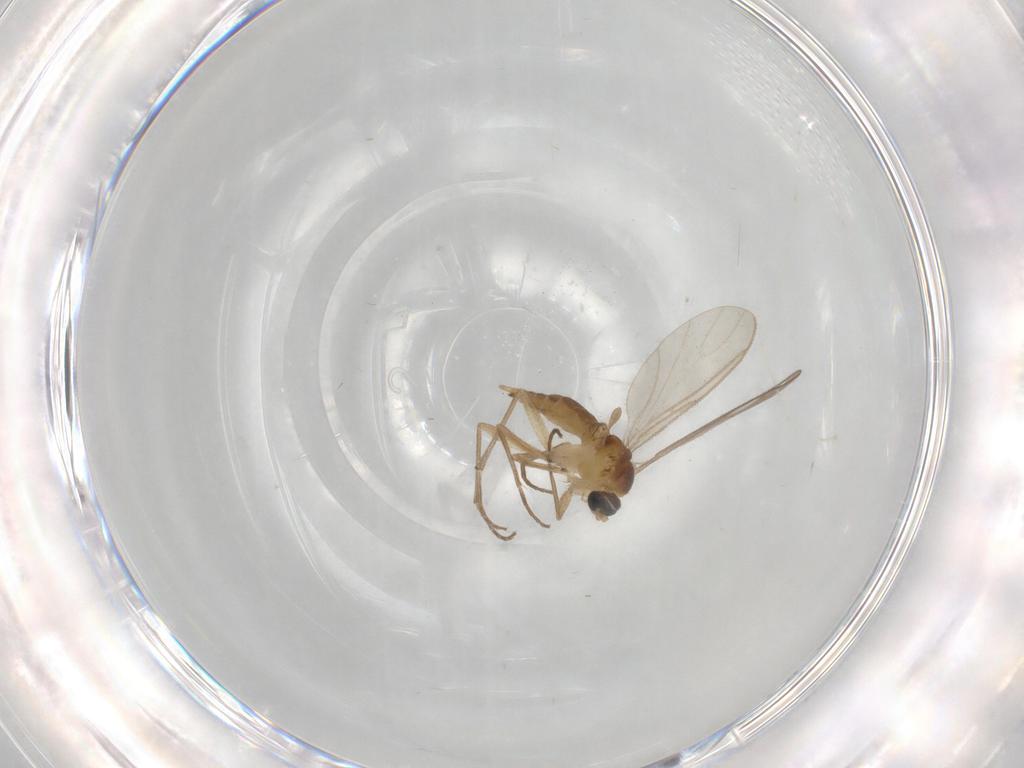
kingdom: Animalia
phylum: Arthropoda
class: Insecta
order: Diptera
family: Sciaridae
